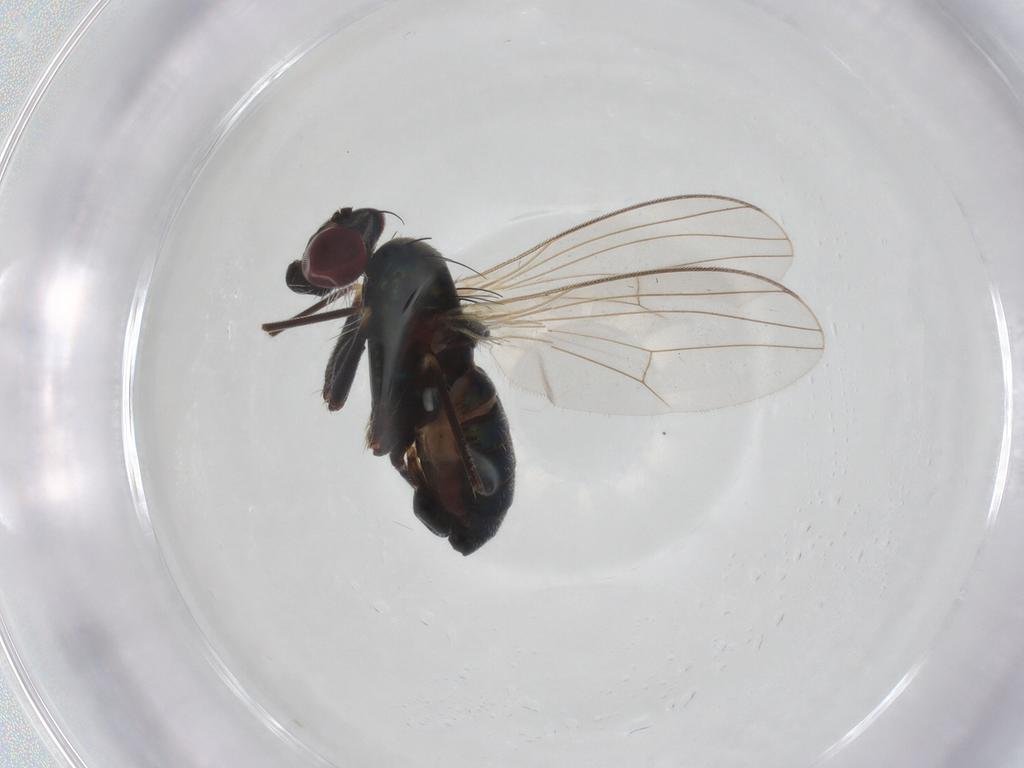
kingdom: Animalia
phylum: Arthropoda
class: Insecta
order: Diptera
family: Dolichopodidae
